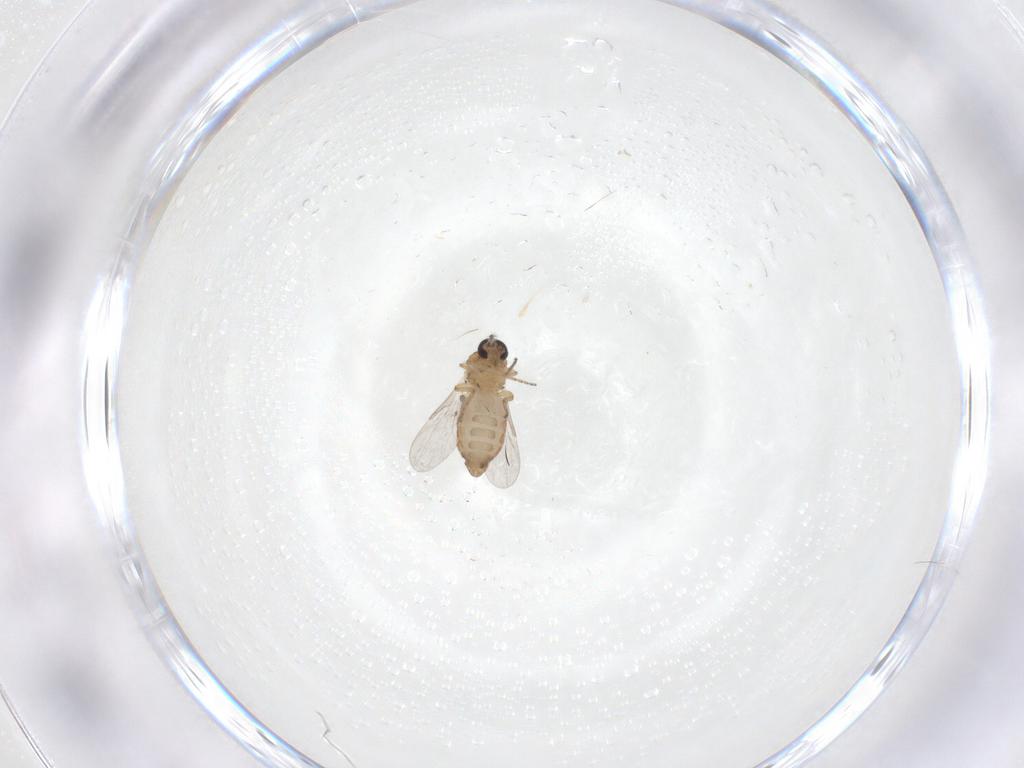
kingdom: Animalia
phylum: Arthropoda
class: Insecta
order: Diptera
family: Ceratopogonidae
